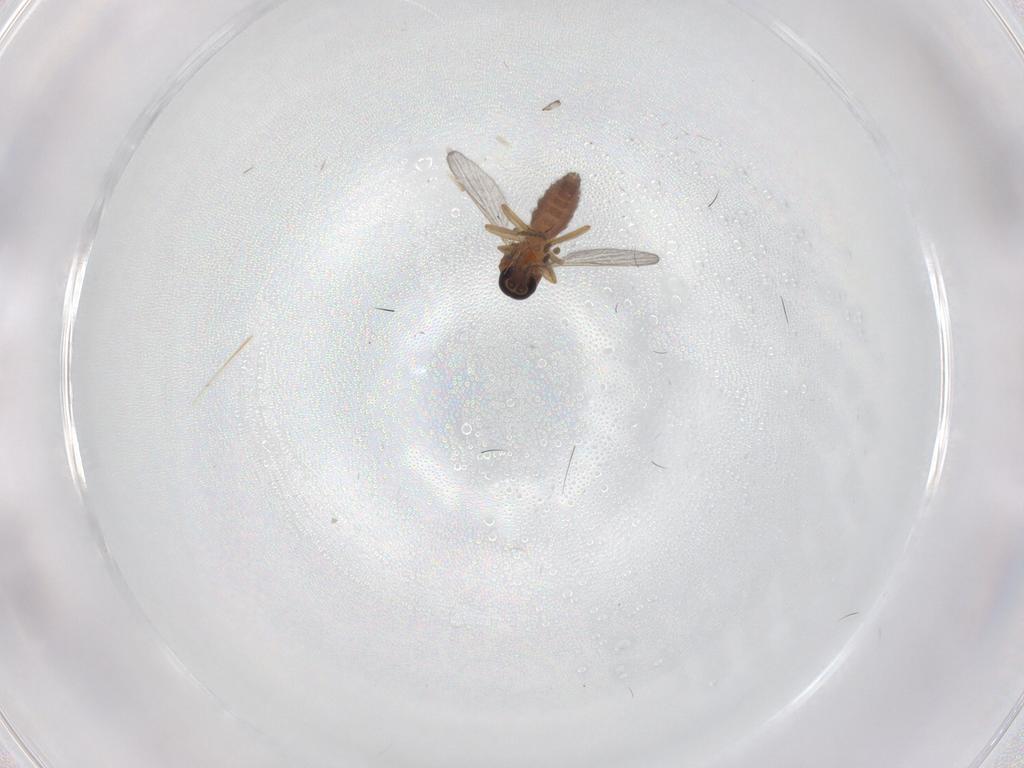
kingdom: Animalia
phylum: Arthropoda
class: Insecta
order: Diptera
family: Ceratopogonidae
